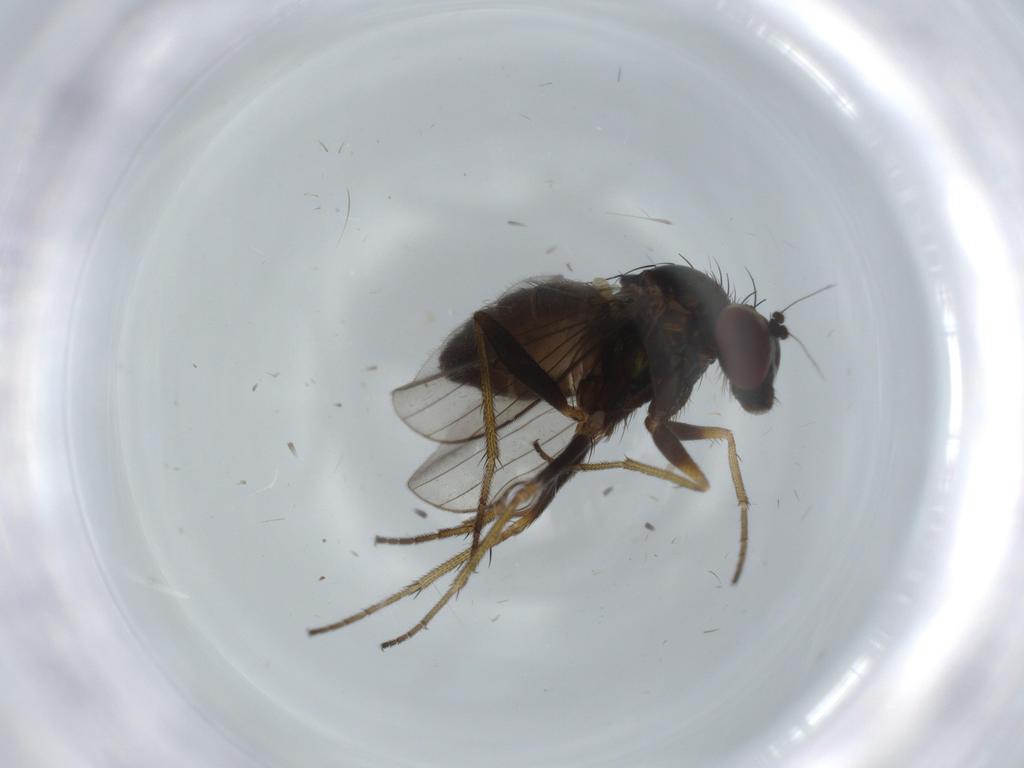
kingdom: Animalia
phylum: Arthropoda
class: Insecta
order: Diptera
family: Dolichopodidae
